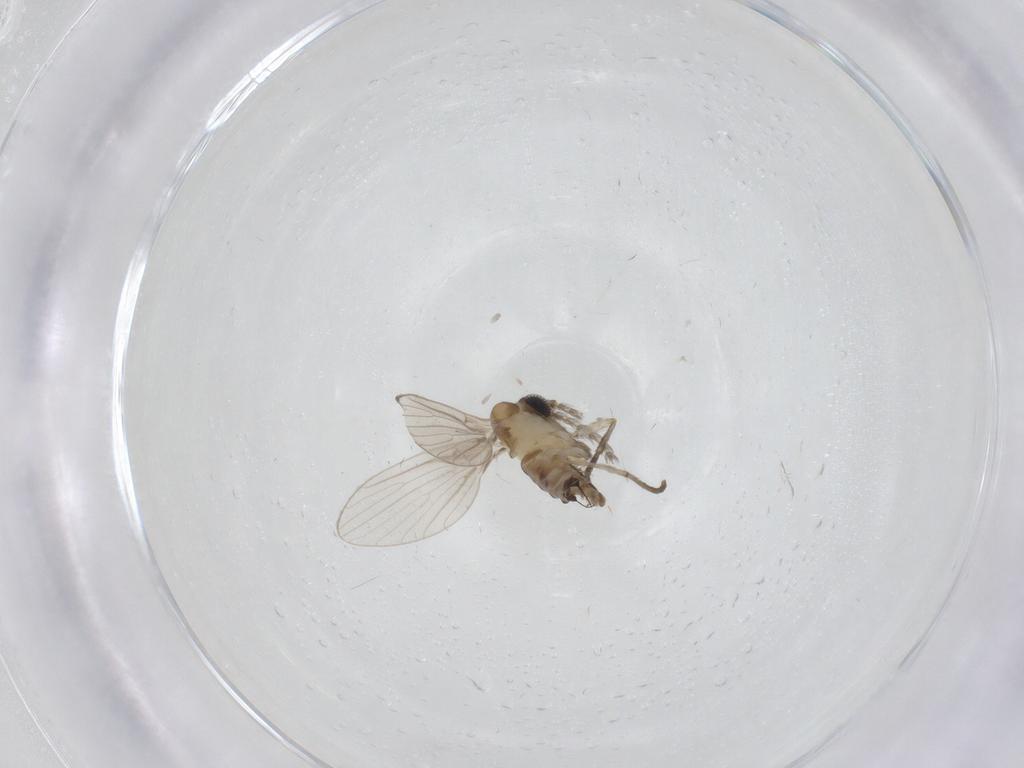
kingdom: Animalia
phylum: Arthropoda
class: Insecta
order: Diptera
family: Psychodidae
